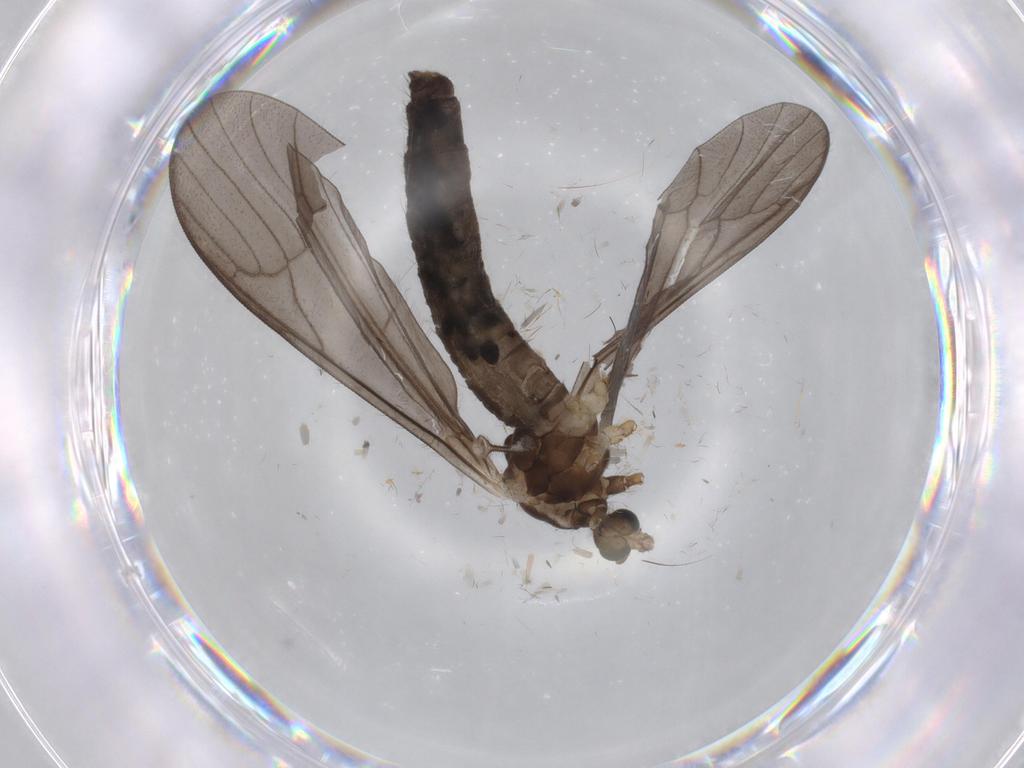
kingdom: Animalia
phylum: Arthropoda
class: Insecta
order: Diptera
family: Limoniidae
